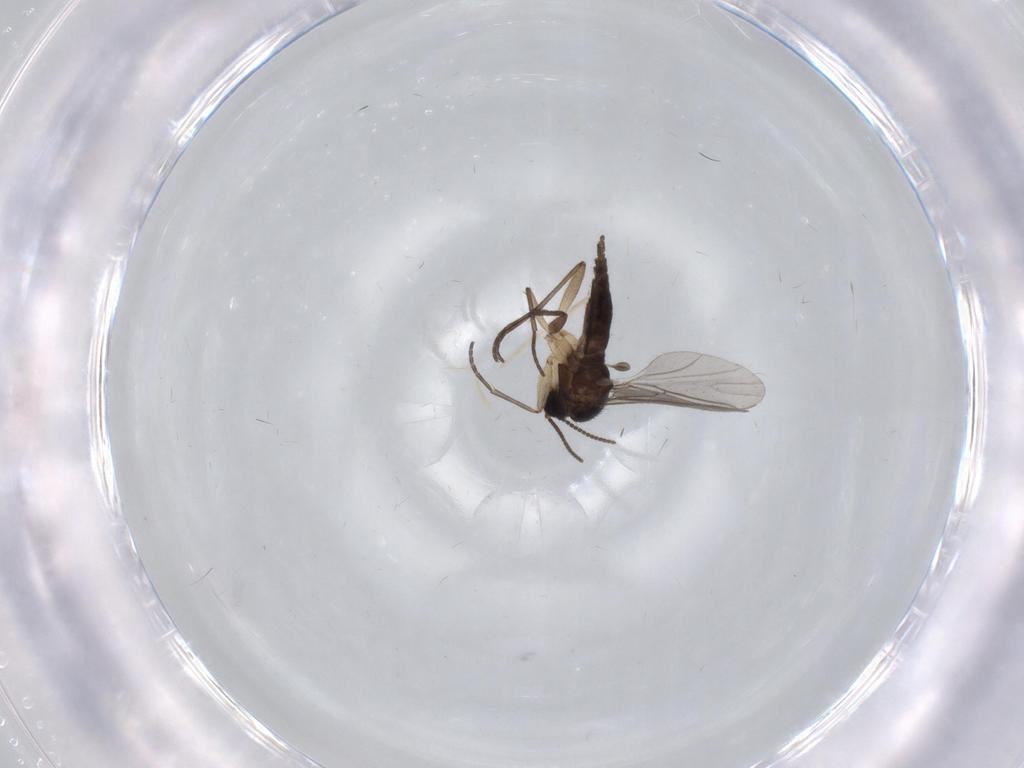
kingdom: Animalia
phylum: Arthropoda
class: Insecta
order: Diptera
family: Sciaridae
